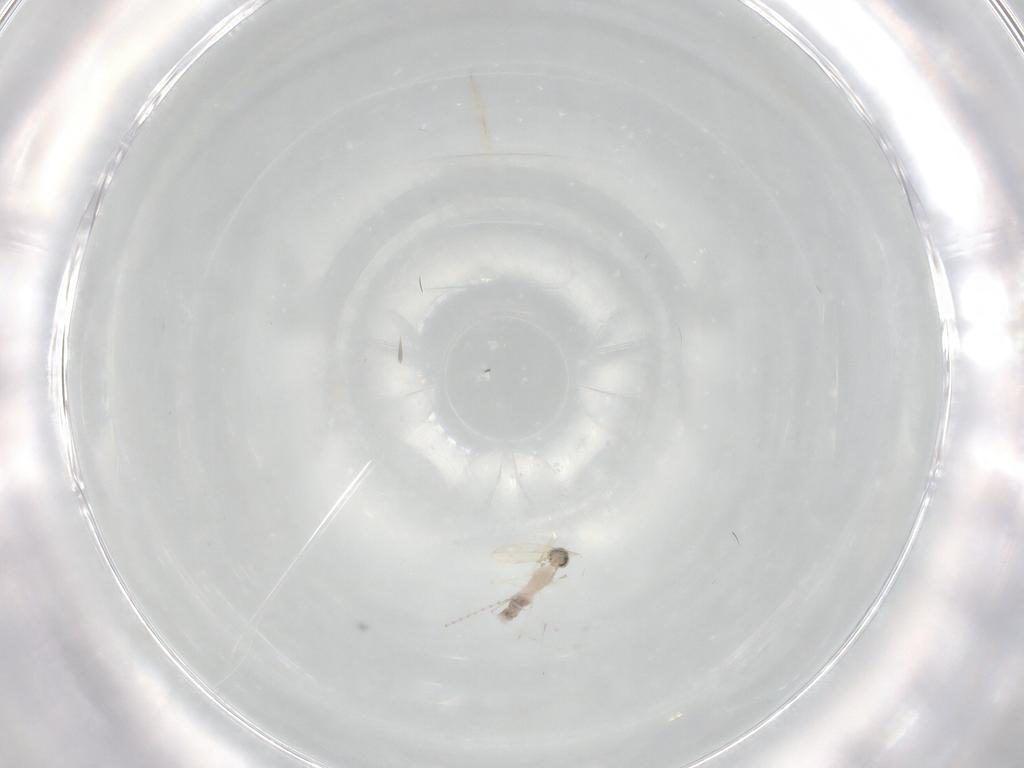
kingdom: Animalia
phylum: Arthropoda
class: Insecta
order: Diptera
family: Cecidomyiidae
